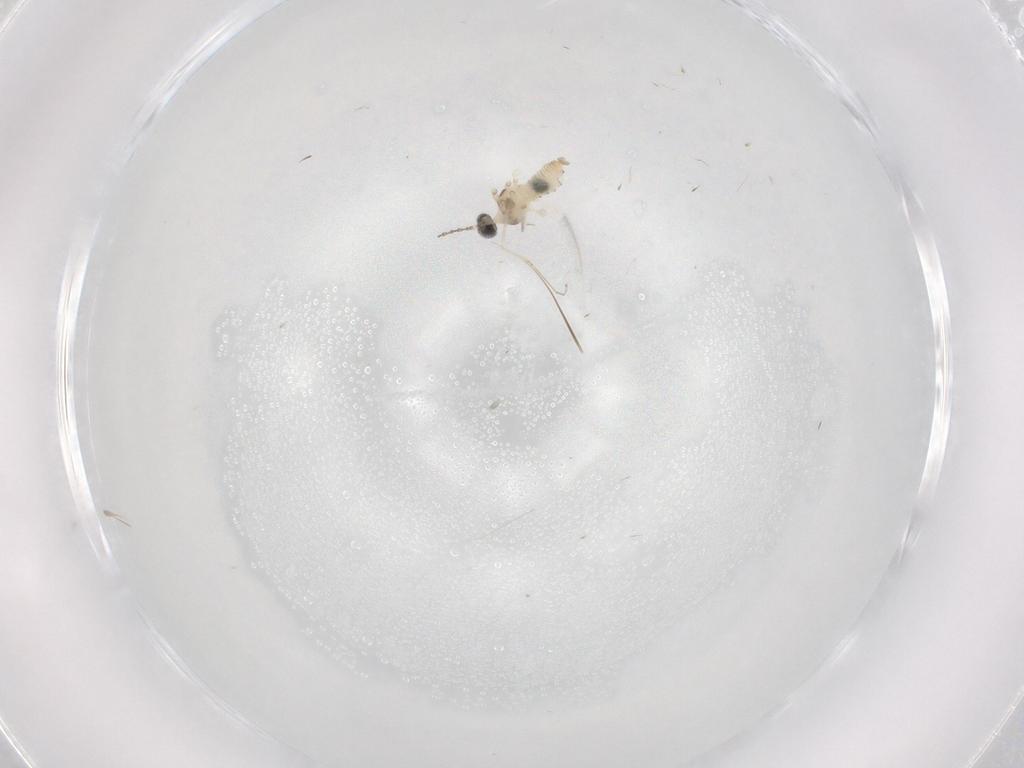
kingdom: Animalia
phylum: Arthropoda
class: Insecta
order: Diptera
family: Cecidomyiidae
